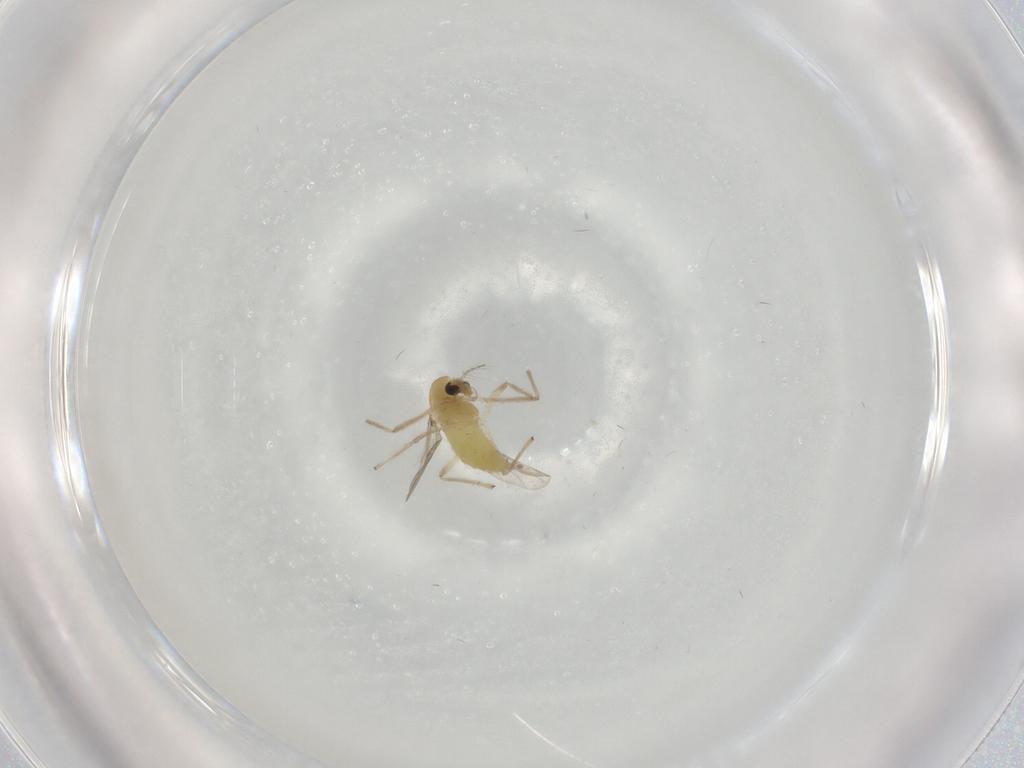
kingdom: Animalia
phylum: Arthropoda
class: Insecta
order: Diptera
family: Chironomidae
